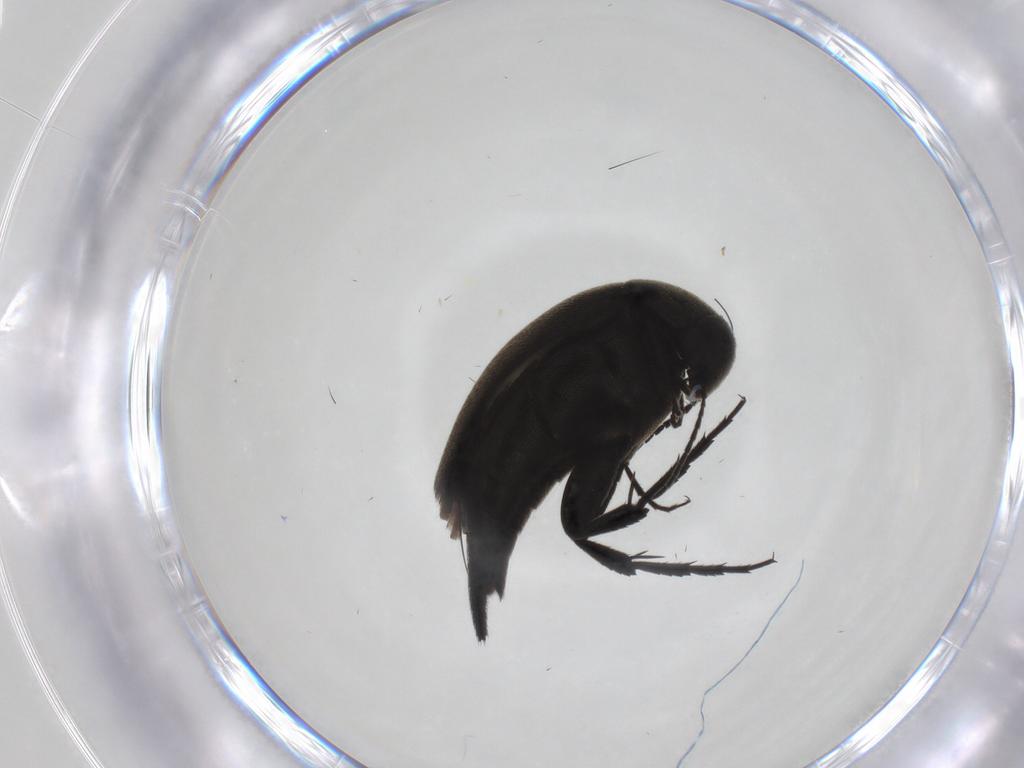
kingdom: Animalia
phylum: Arthropoda
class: Insecta
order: Coleoptera
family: Mordellidae
